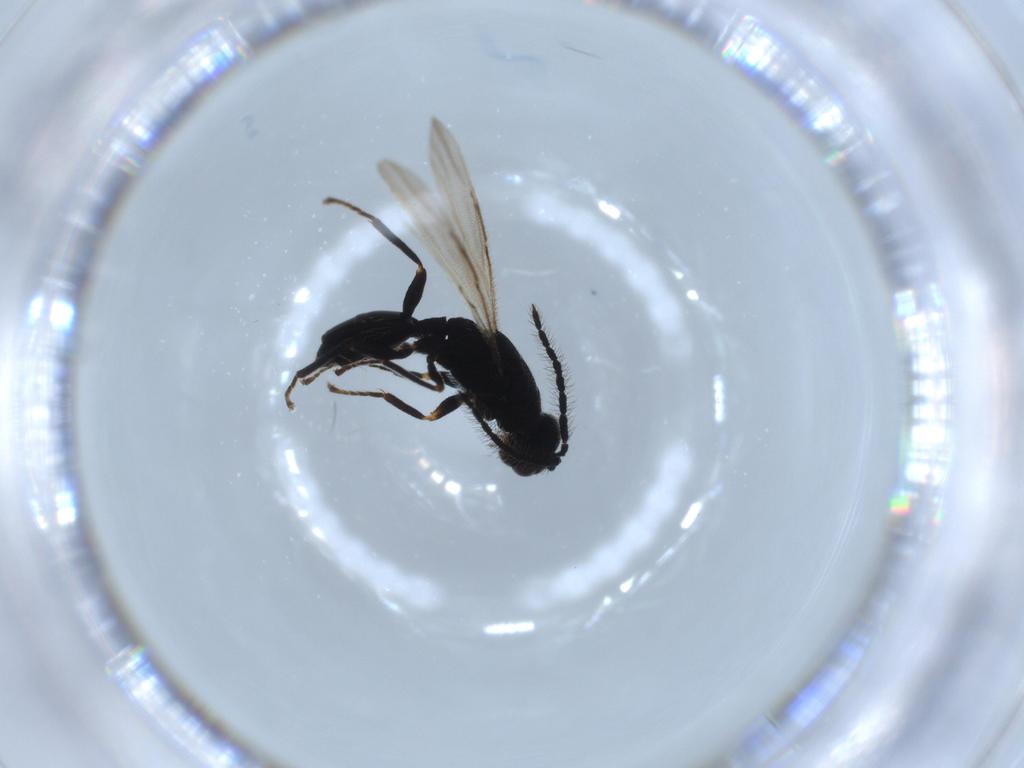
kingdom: Animalia
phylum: Arthropoda
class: Insecta
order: Hymenoptera
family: Eurytomidae
